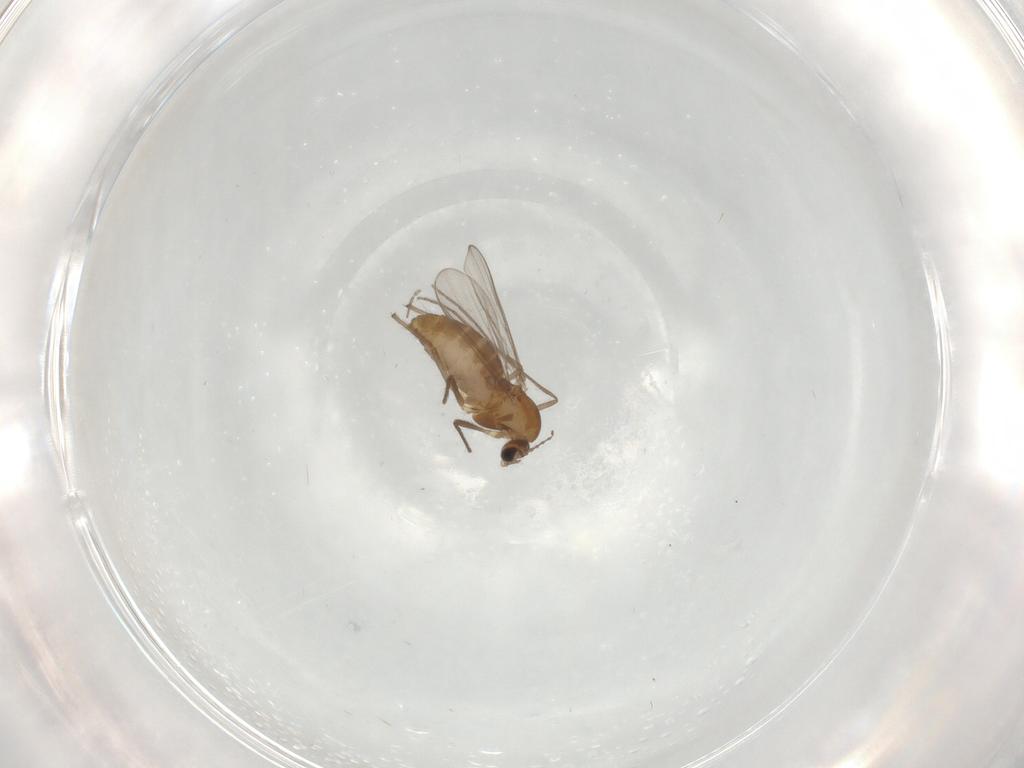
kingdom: Animalia
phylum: Arthropoda
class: Insecta
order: Diptera
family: Chironomidae
